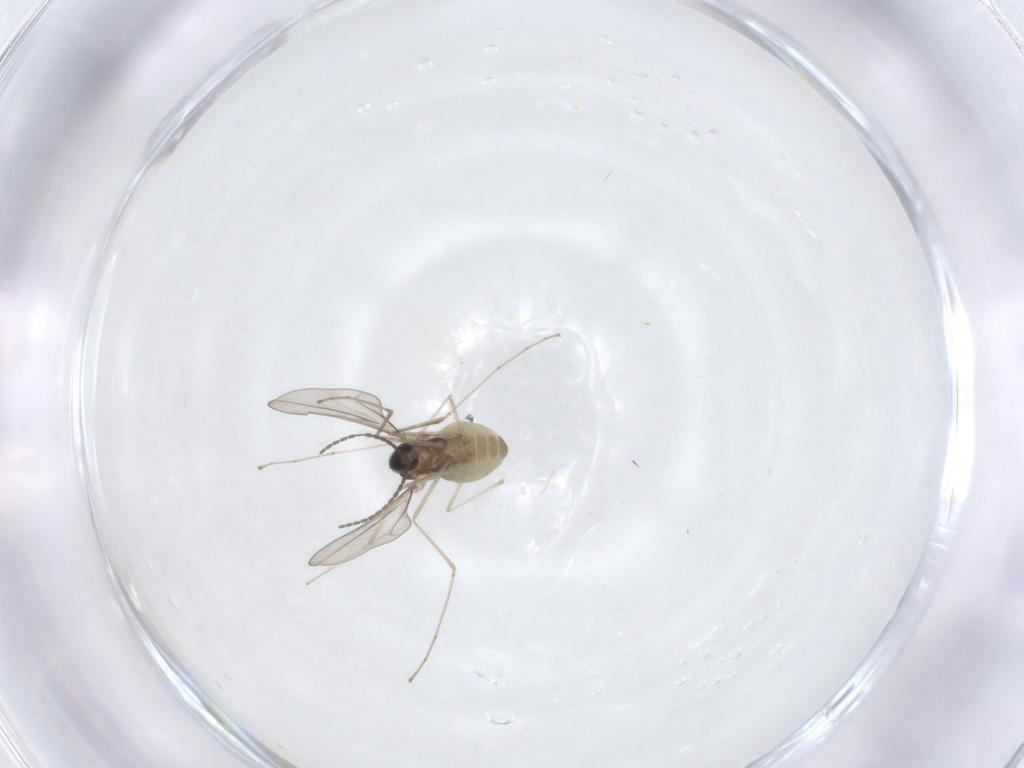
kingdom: Animalia
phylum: Arthropoda
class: Insecta
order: Diptera
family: Cecidomyiidae
